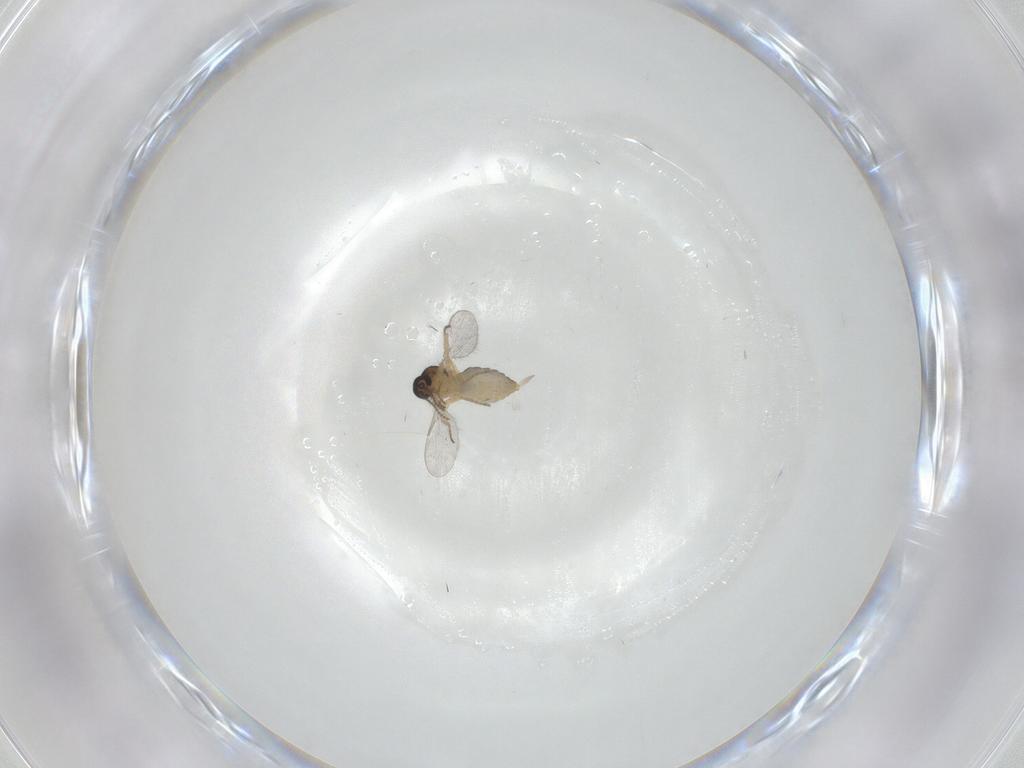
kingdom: Animalia
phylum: Arthropoda
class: Insecta
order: Diptera
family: Ceratopogonidae
